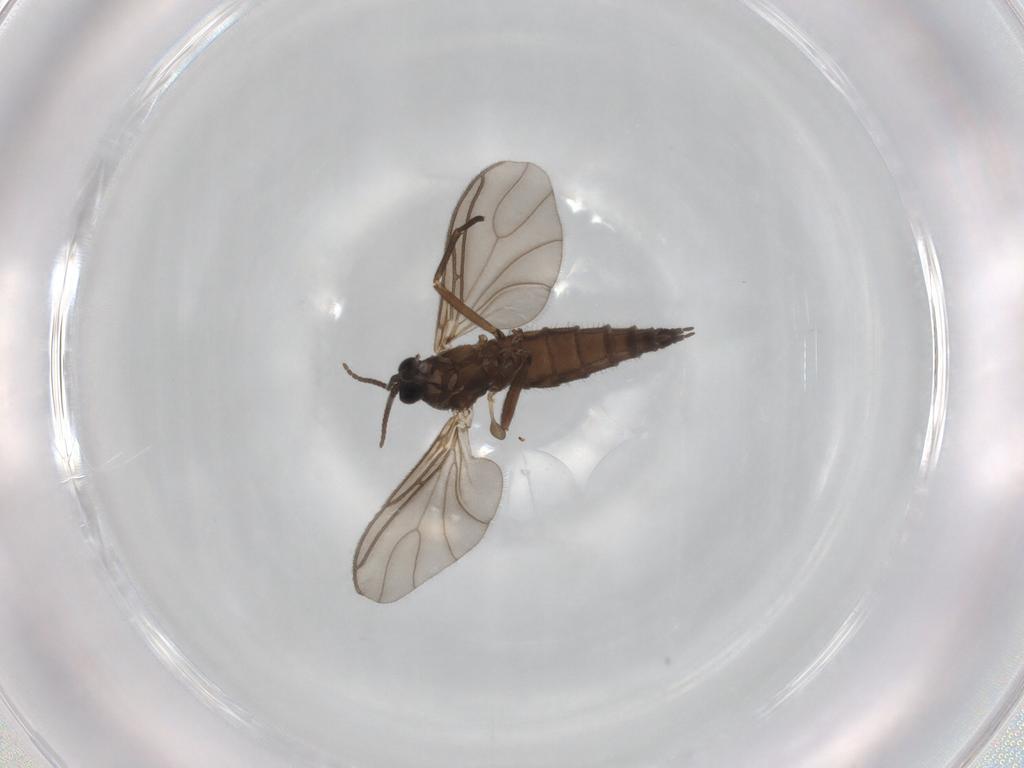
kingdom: Animalia
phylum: Arthropoda
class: Insecta
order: Diptera
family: Sciaridae
